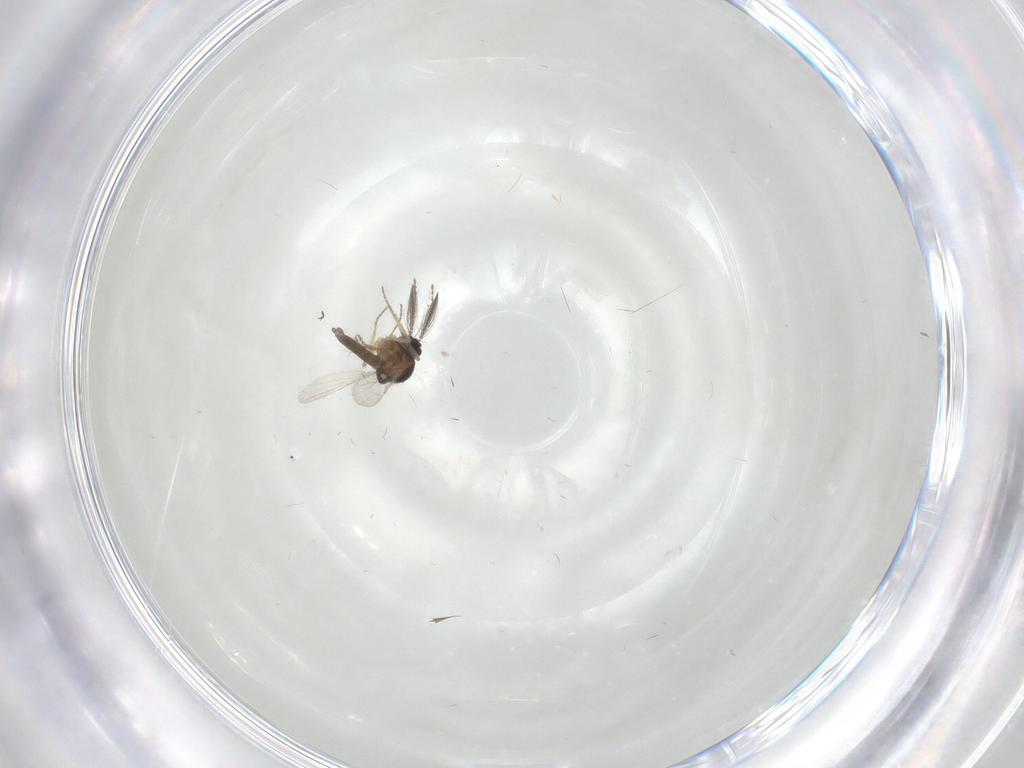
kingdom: Animalia
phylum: Arthropoda
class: Insecta
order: Diptera
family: Ceratopogonidae
